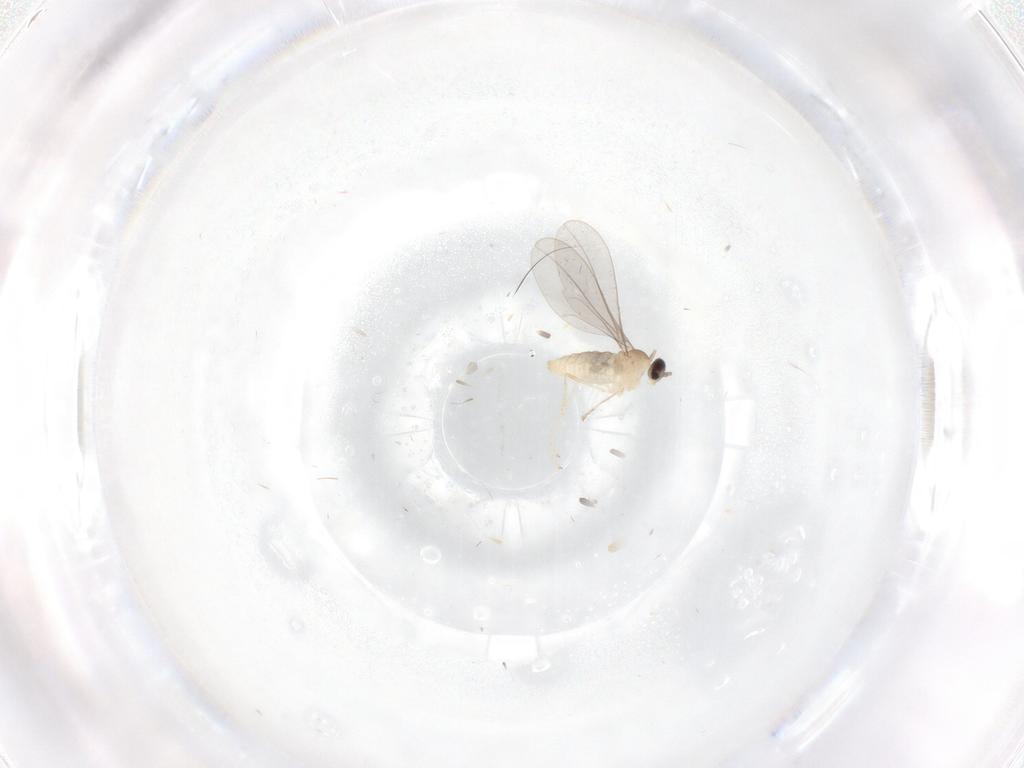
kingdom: Animalia
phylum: Arthropoda
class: Insecta
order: Diptera
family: Cecidomyiidae
